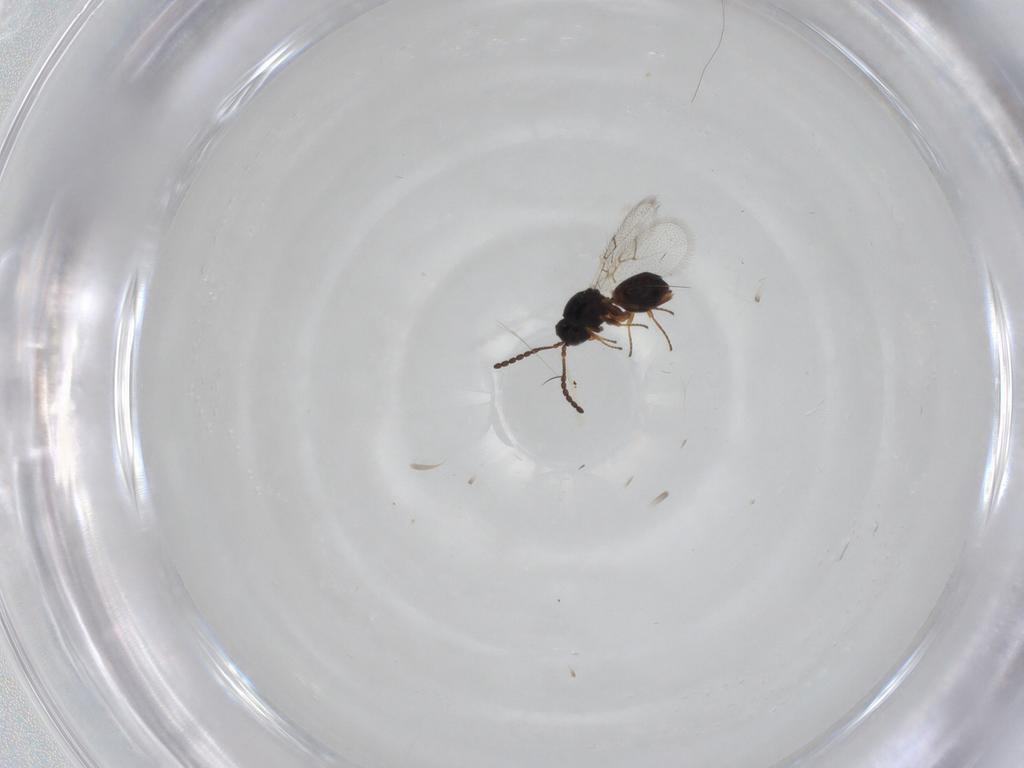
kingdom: Animalia
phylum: Arthropoda
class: Insecta
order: Hymenoptera
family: Figitidae
